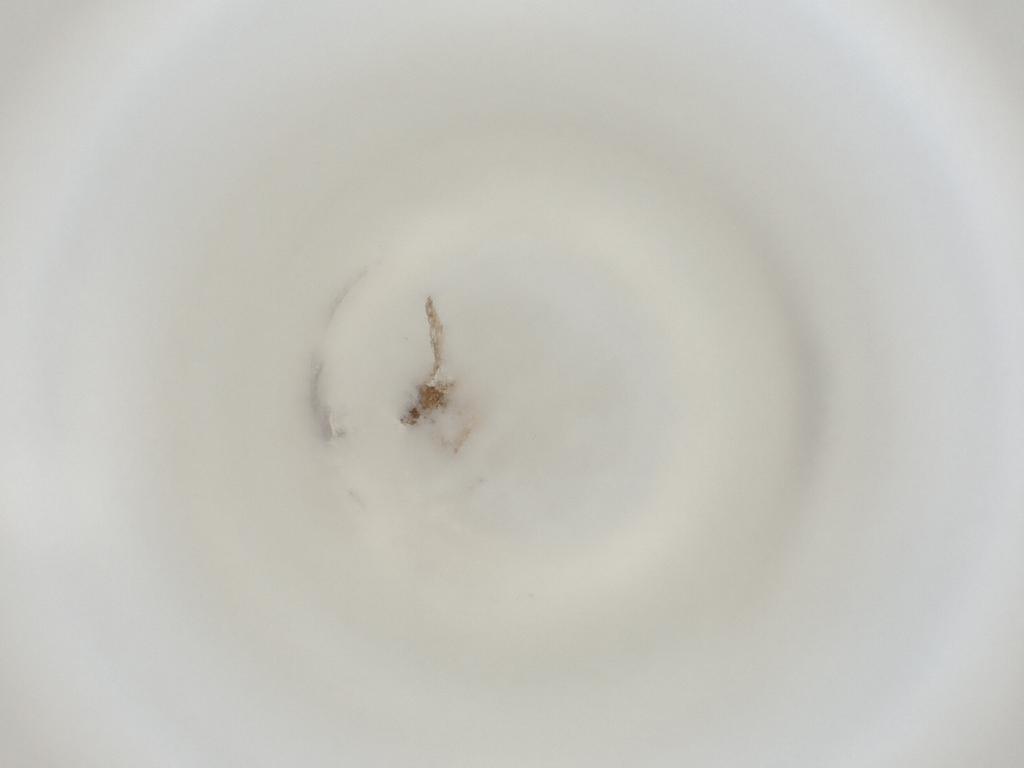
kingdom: Animalia
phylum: Arthropoda
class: Insecta
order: Diptera
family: Cecidomyiidae
